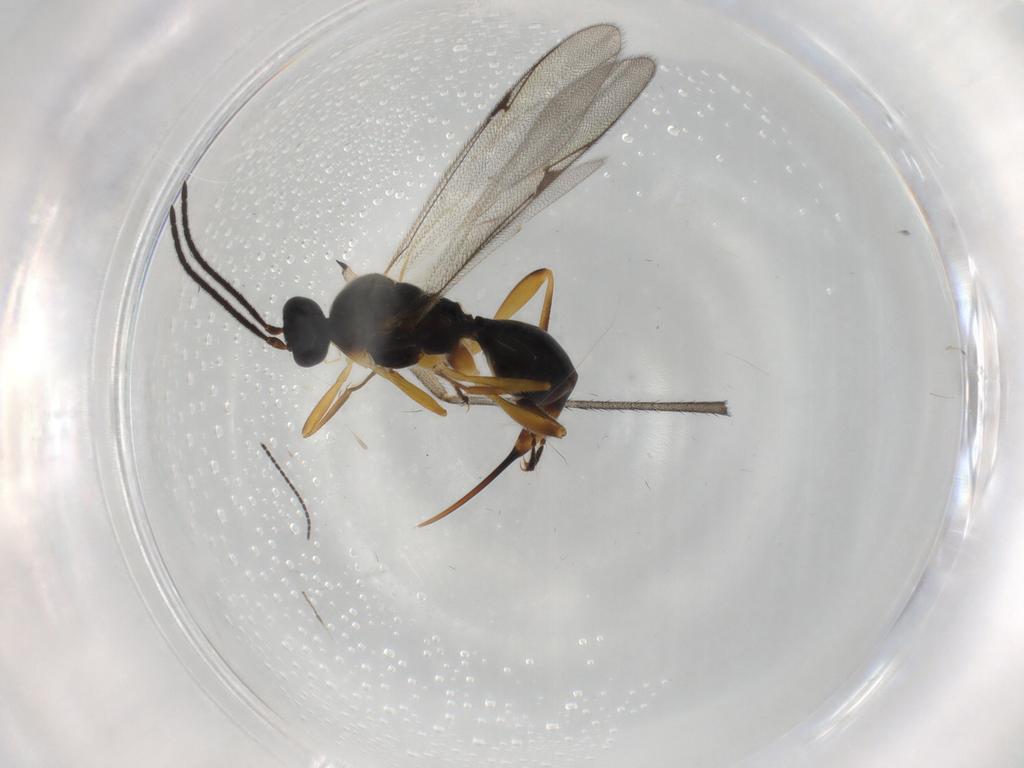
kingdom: Animalia
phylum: Arthropoda
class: Insecta
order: Hymenoptera
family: Proctotrupidae
